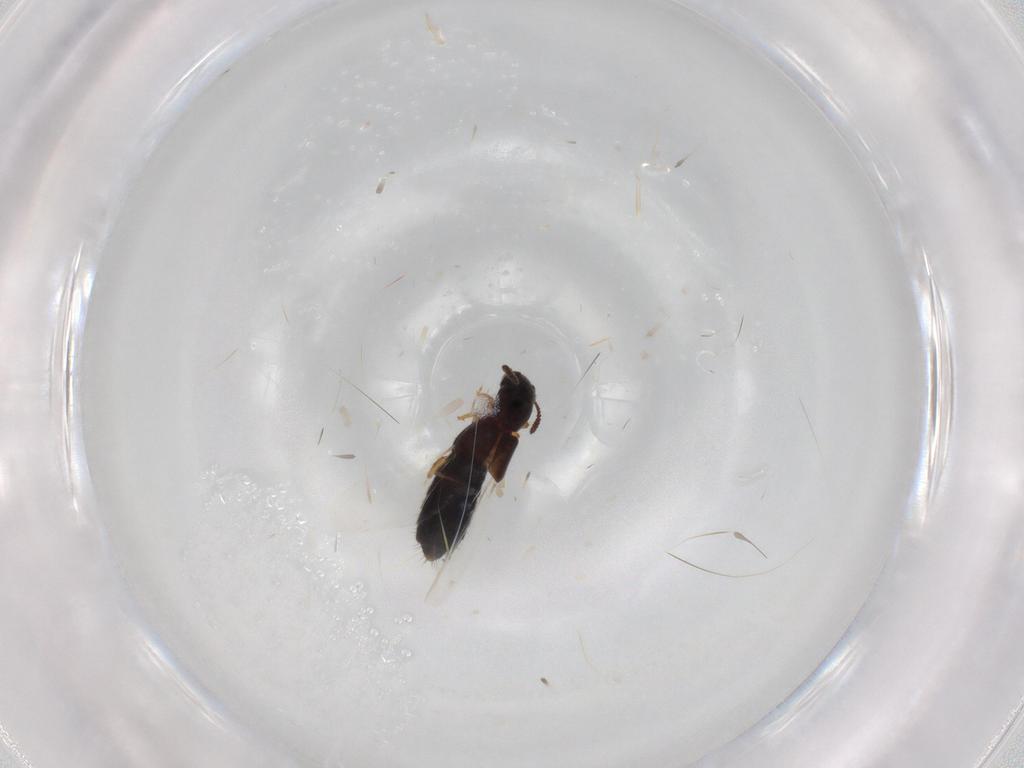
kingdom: Animalia
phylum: Arthropoda
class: Insecta
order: Coleoptera
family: Staphylinidae
